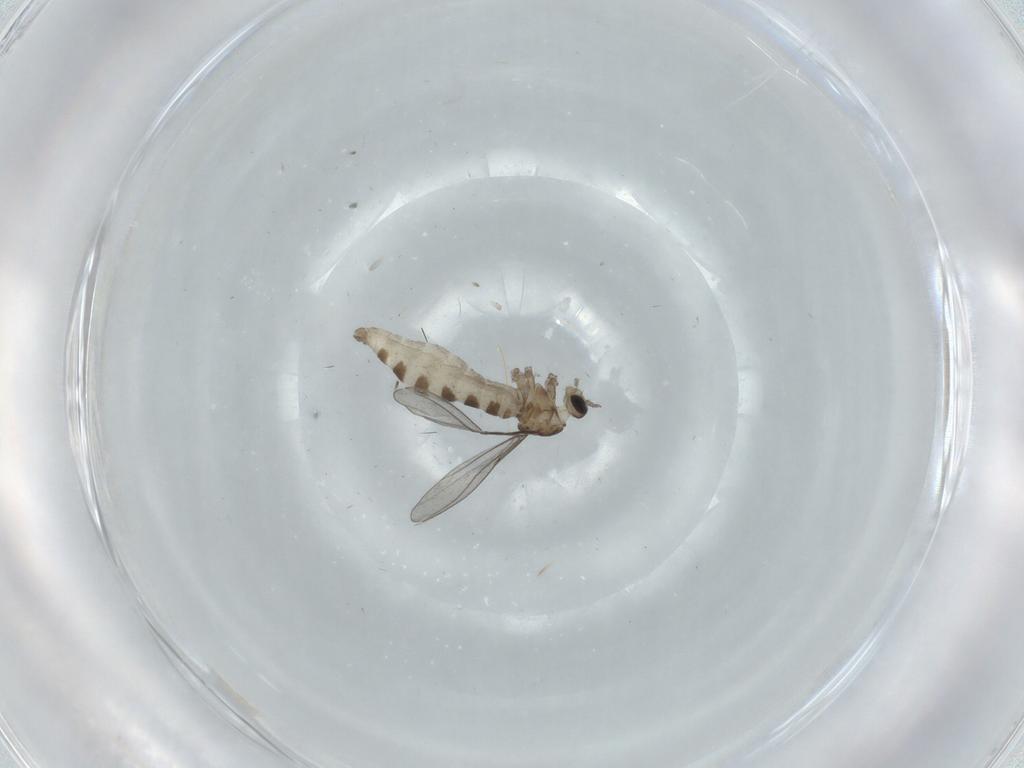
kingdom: Animalia
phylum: Arthropoda
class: Insecta
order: Diptera
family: Cecidomyiidae
